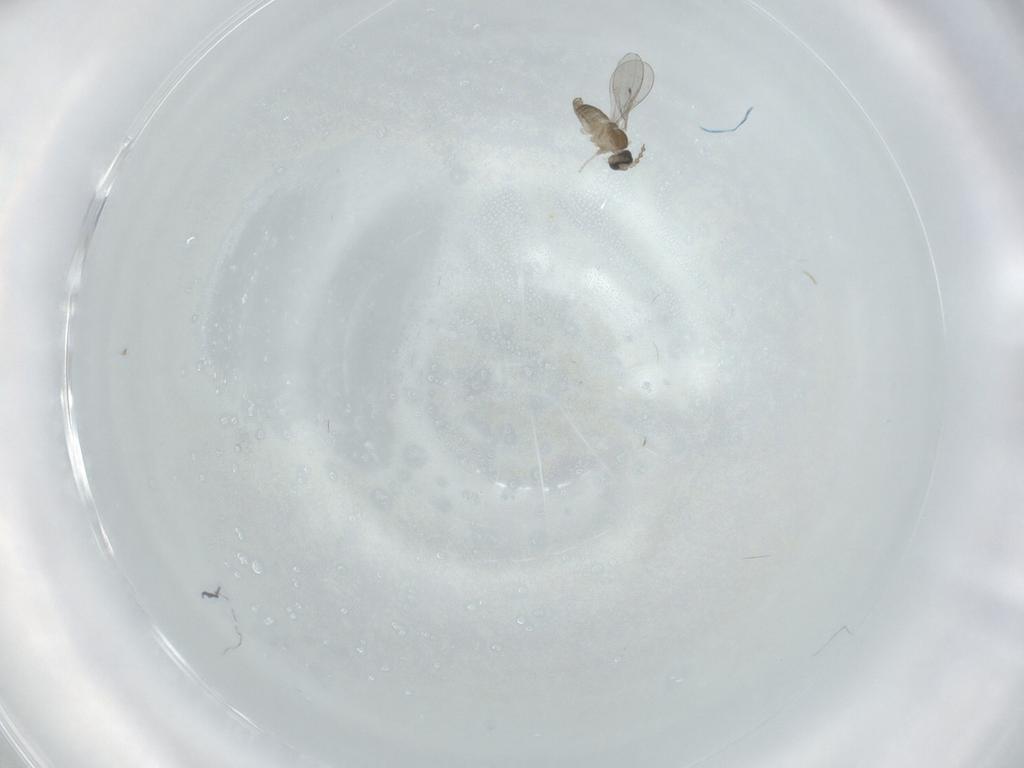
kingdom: Animalia
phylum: Arthropoda
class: Insecta
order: Diptera
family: Cecidomyiidae
